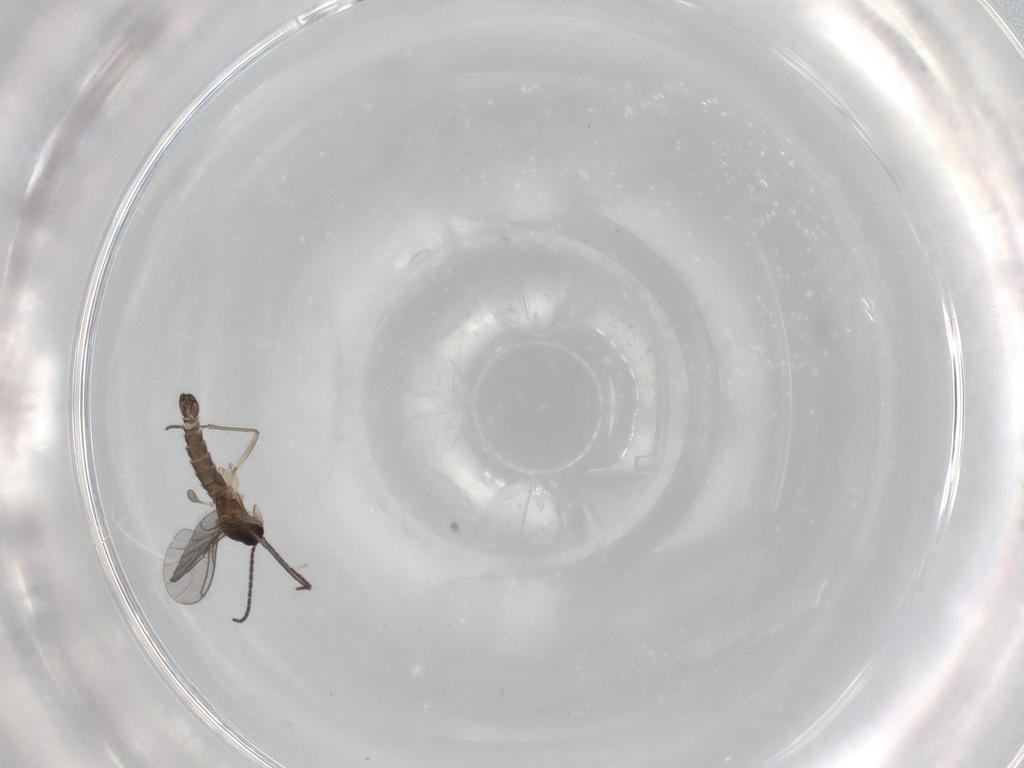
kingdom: Animalia
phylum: Arthropoda
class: Insecta
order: Diptera
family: Sciaridae
